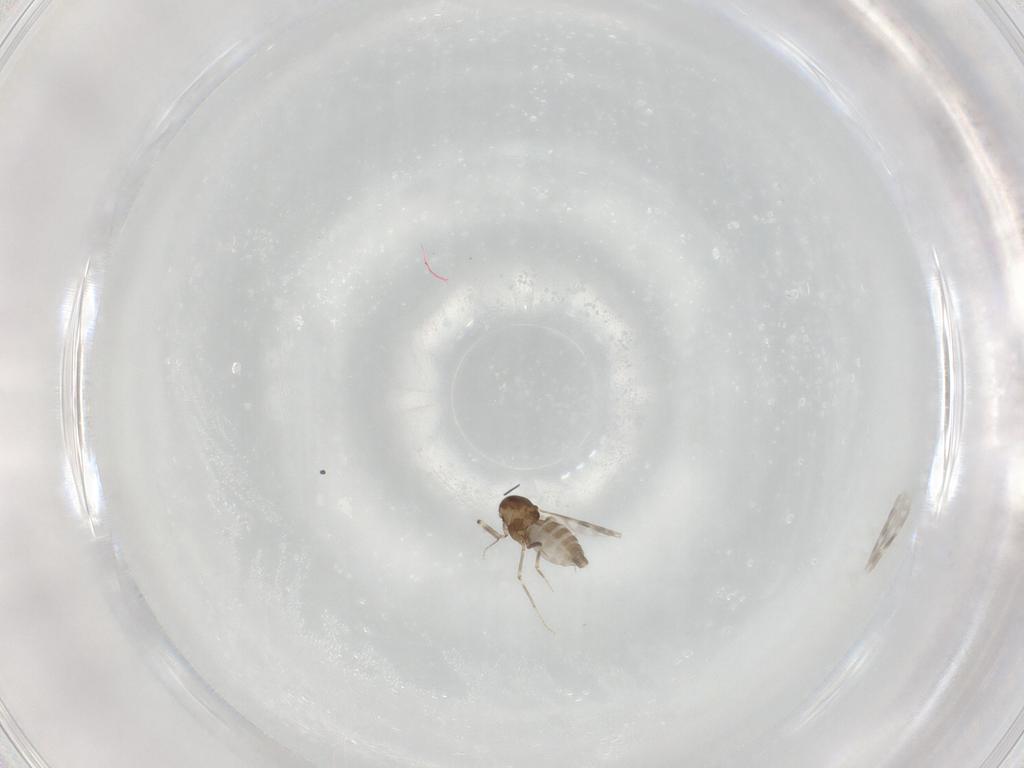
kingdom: Animalia
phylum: Arthropoda
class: Insecta
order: Diptera
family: Ceratopogonidae
